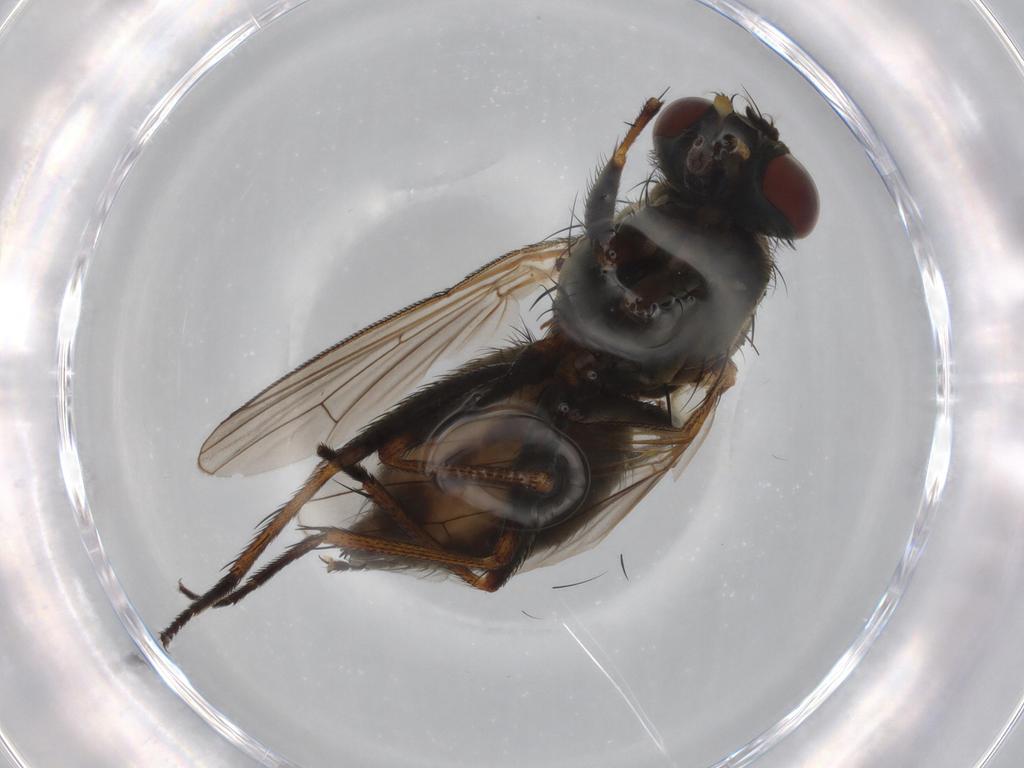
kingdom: Animalia
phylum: Arthropoda
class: Insecta
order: Diptera
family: Muscidae
